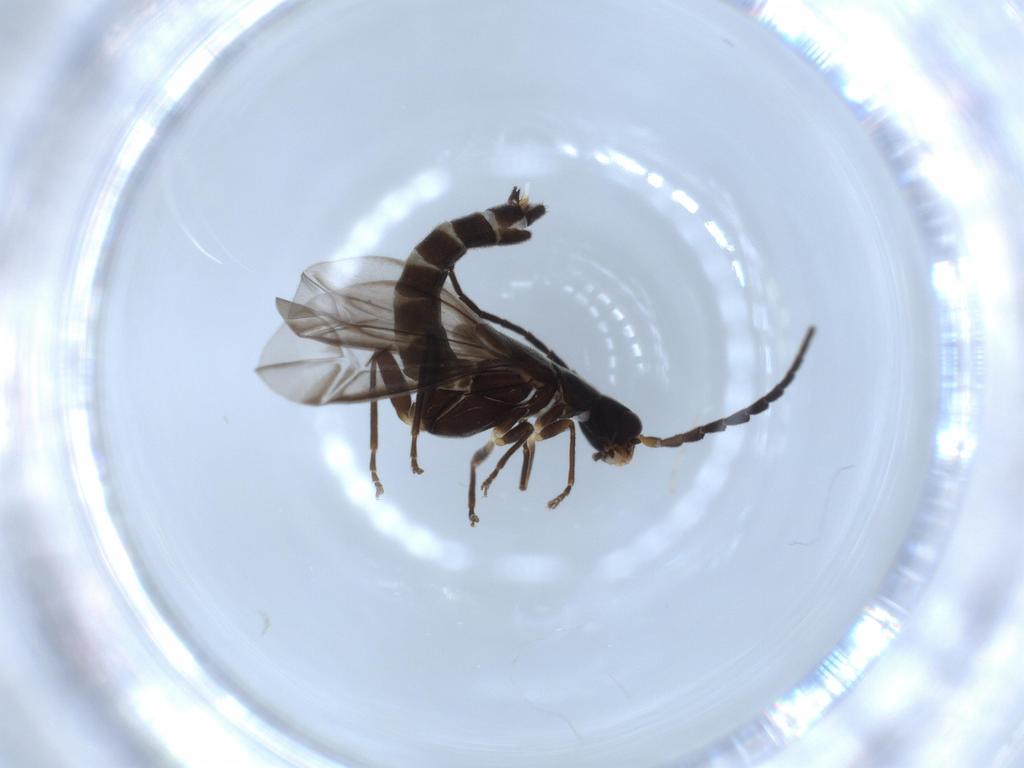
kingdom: Animalia
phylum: Arthropoda
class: Insecta
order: Coleoptera
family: Cantharidae
